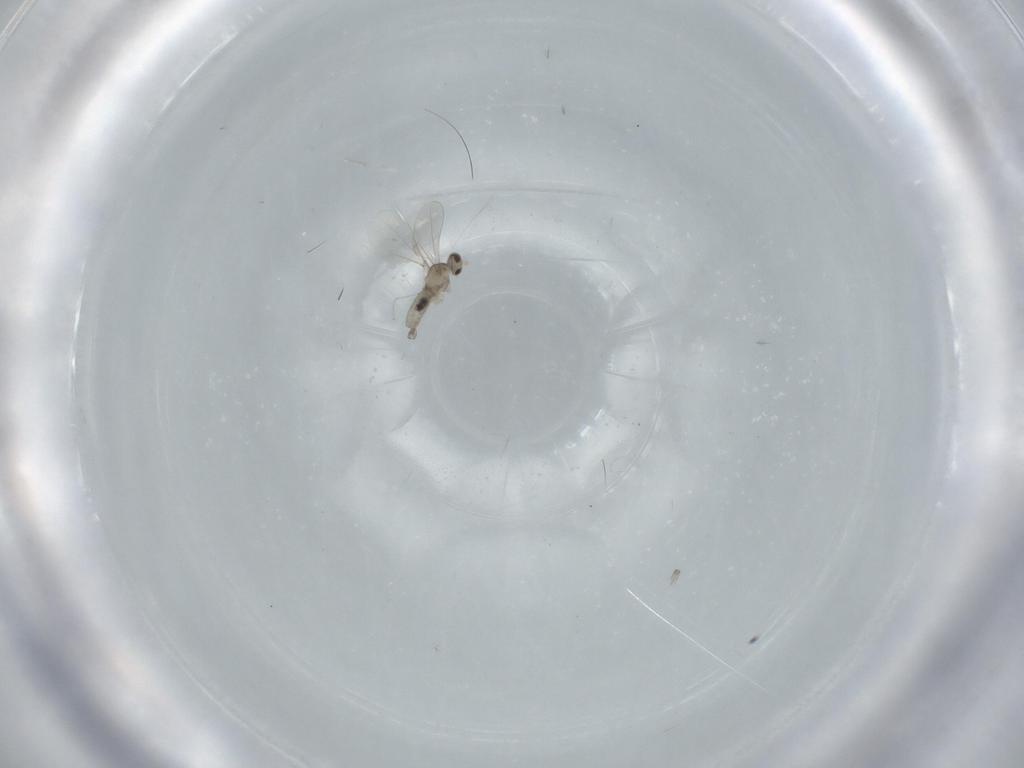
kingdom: Animalia
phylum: Arthropoda
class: Insecta
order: Diptera
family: Cecidomyiidae
